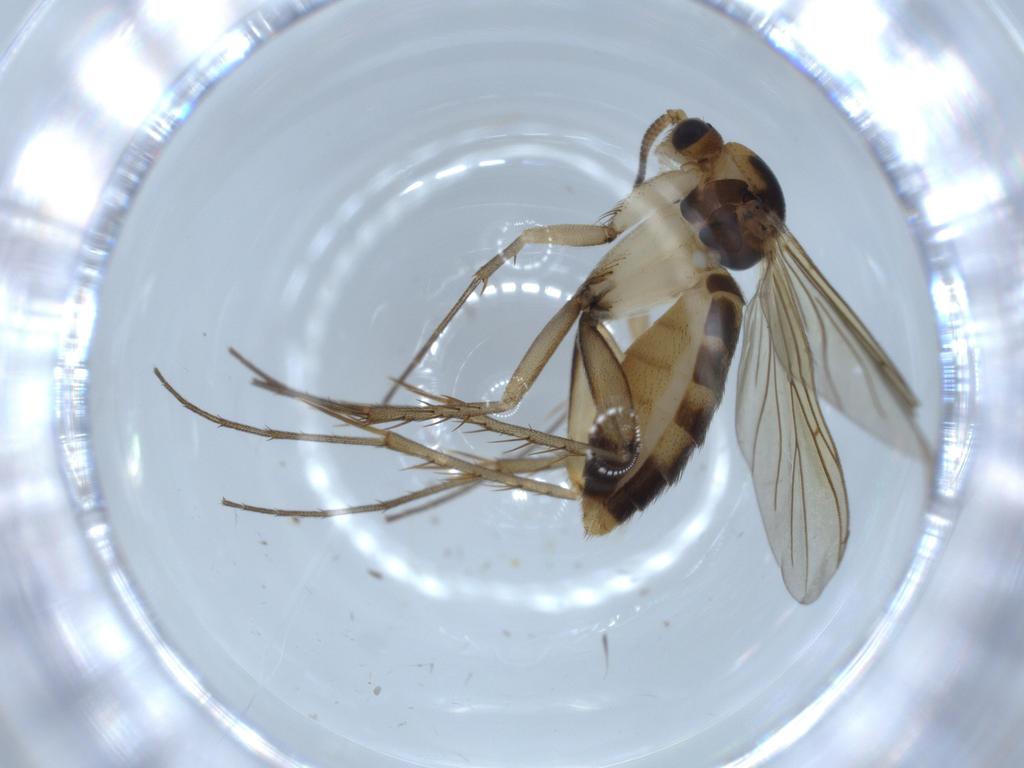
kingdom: Animalia
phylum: Arthropoda
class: Insecta
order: Diptera
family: Mycetophilidae
